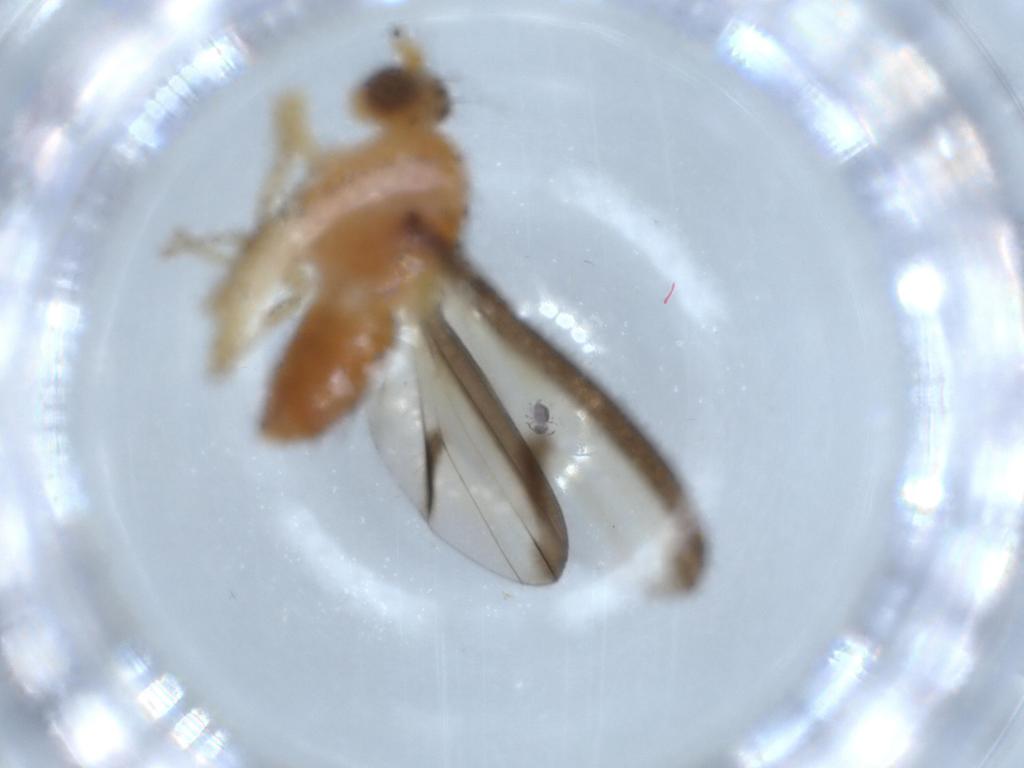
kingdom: Animalia
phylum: Arthropoda
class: Insecta
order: Diptera
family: Lauxaniidae
